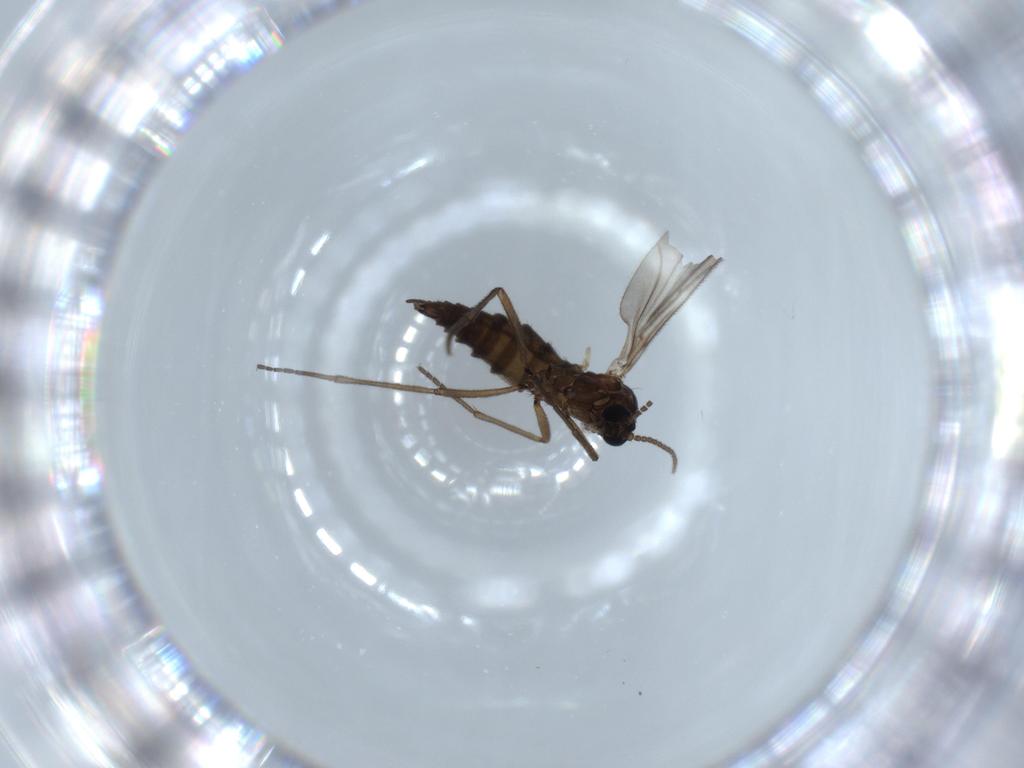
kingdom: Animalia
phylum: Arthropoda
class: Insecta
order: Diptera
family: Sciaridae
